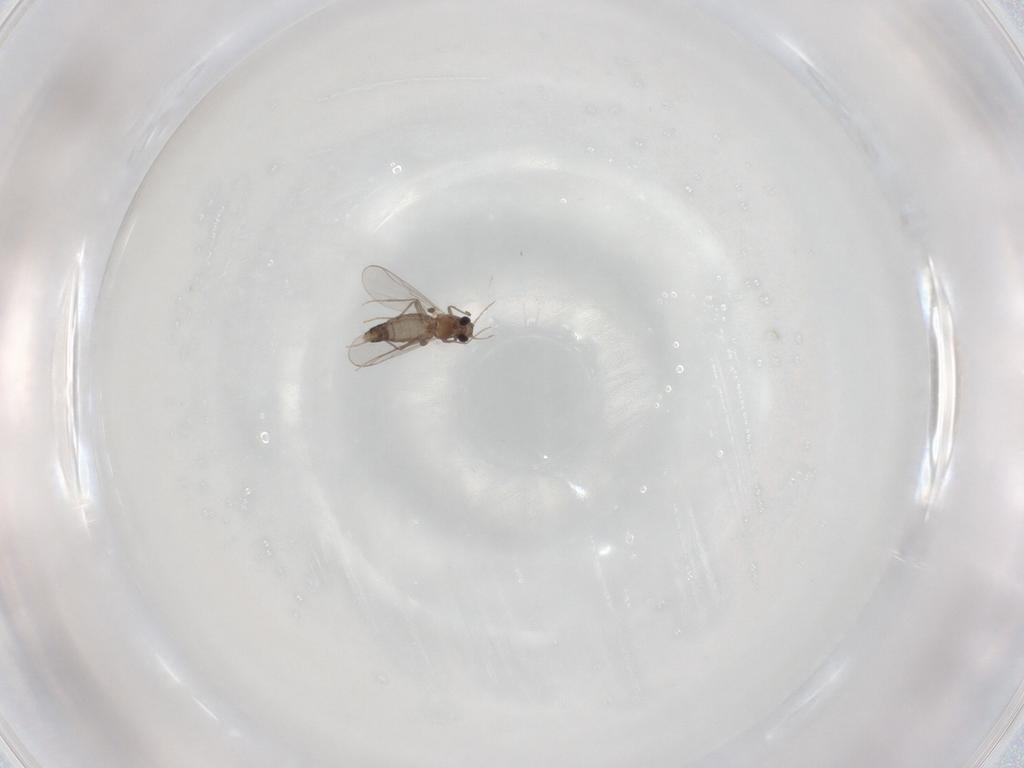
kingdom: Animalia
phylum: Arthropoda
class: Insecta
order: Diptera
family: Chironomidae
